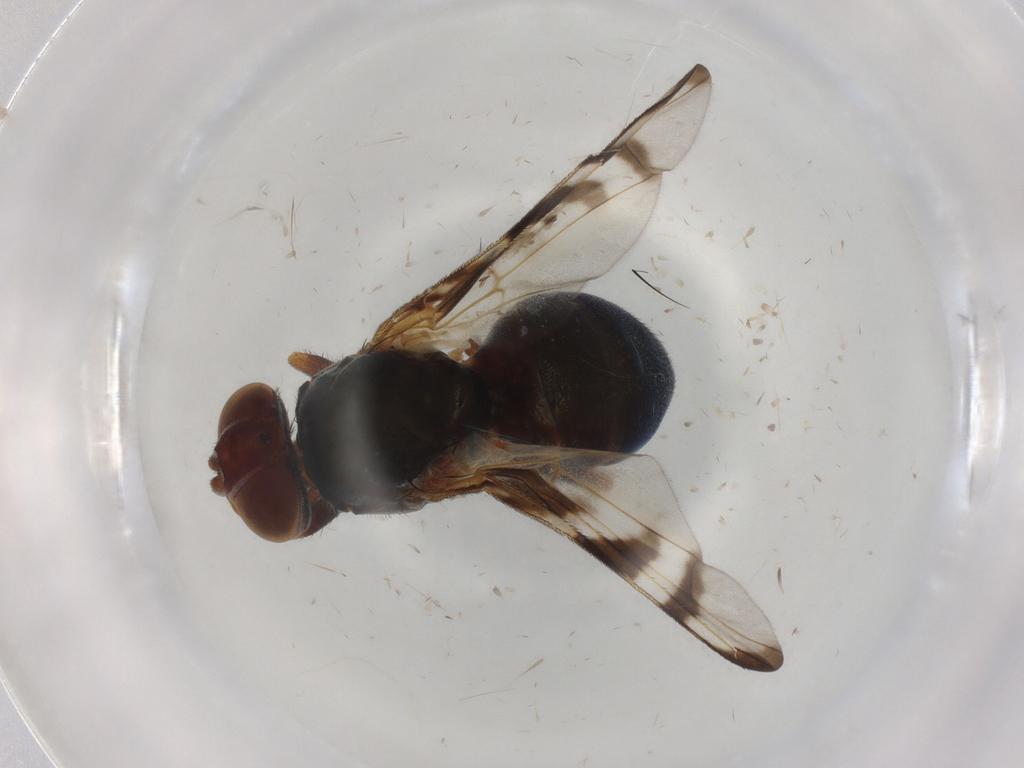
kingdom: Animalia
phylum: Arthropoda
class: Insecta
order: Diptera
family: Platystomatidae
